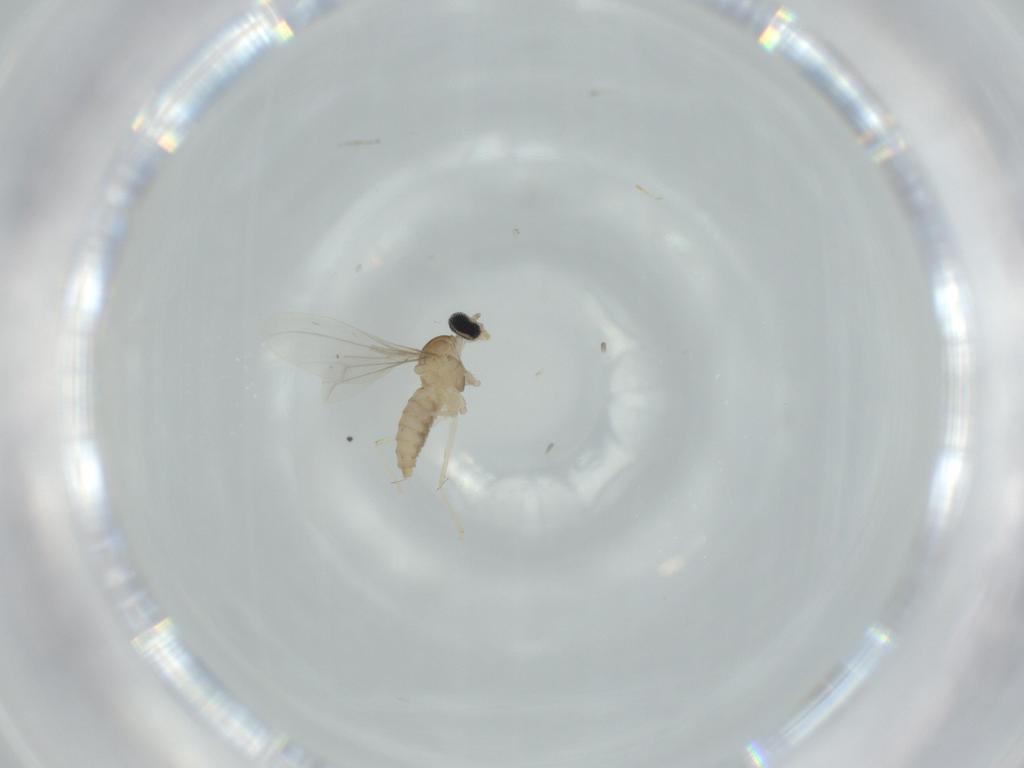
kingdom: Animalia
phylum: Arthropoda
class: Insecta
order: Diptera
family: Cecidomyiidae
